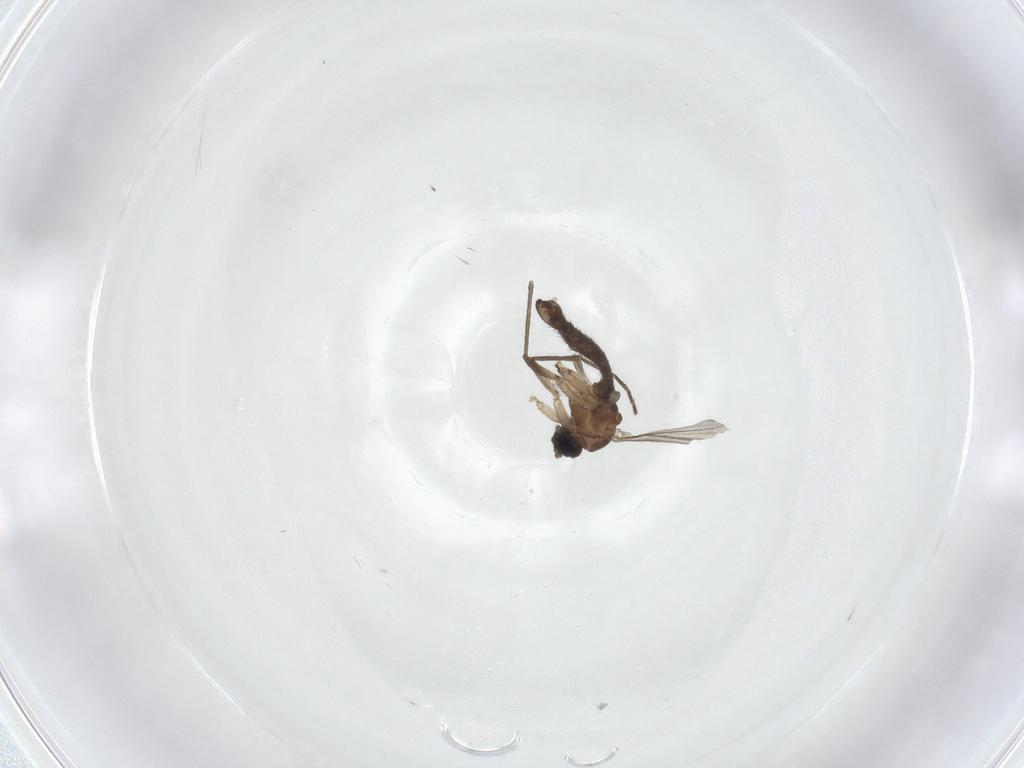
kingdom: Animalia
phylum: Arthropoda
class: Insecta
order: Diptera
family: Sciaridae
